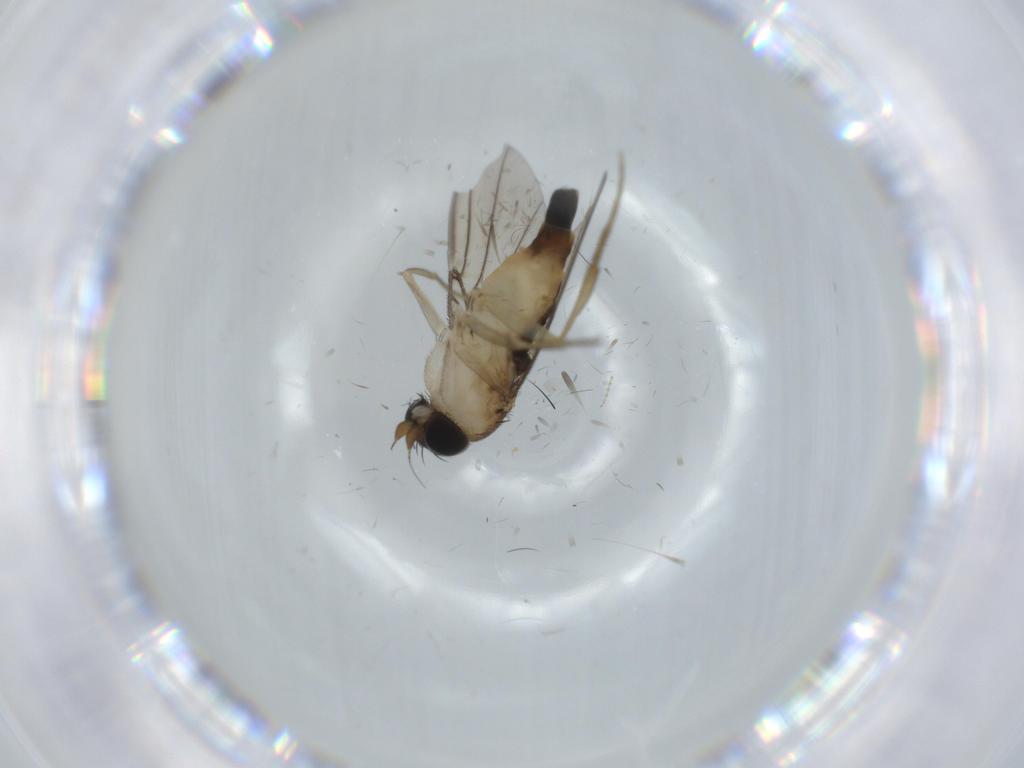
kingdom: Animalia
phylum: Arthropoda
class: Insecta
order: Diptera
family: Phoridae
